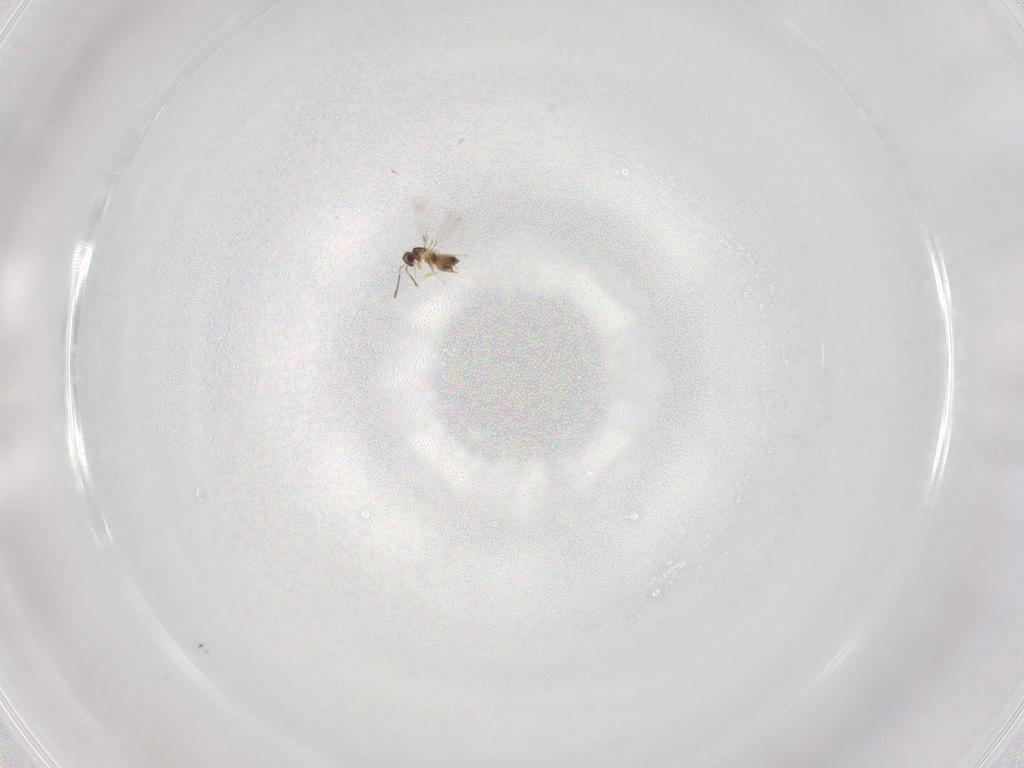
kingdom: Animalia
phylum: Arthropoda
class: Insecta
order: Hymenoptera
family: Mymaridae
